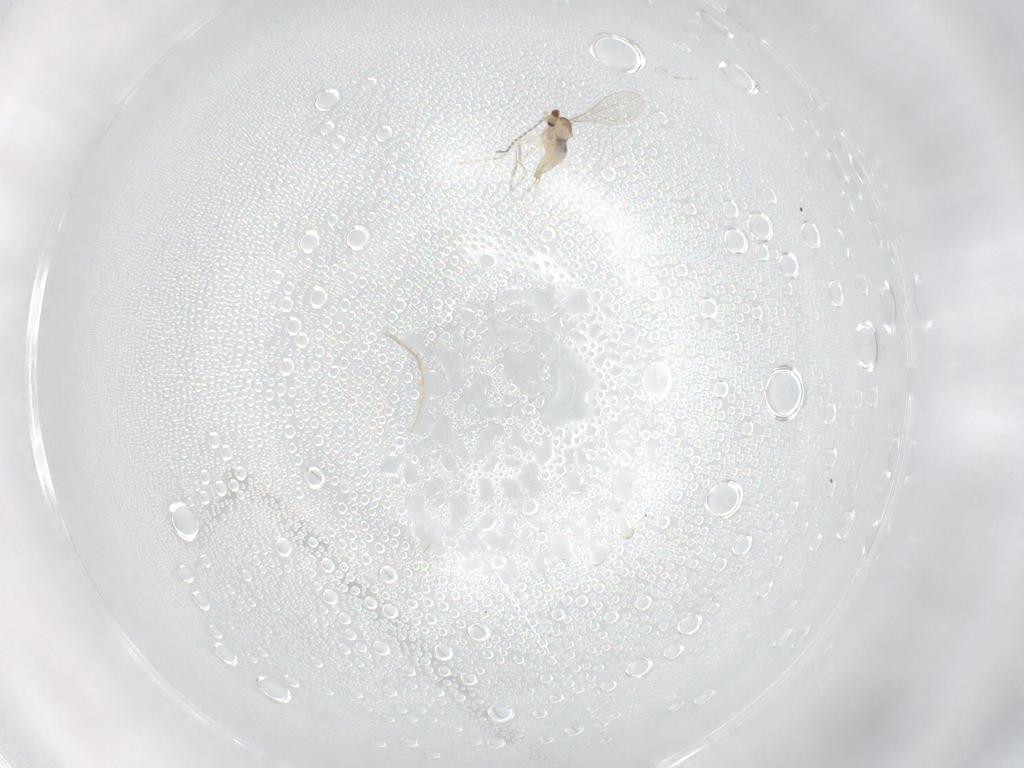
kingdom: Animalia
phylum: Arthropoda
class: Insecta
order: Diptera
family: Cecidomyiidae
